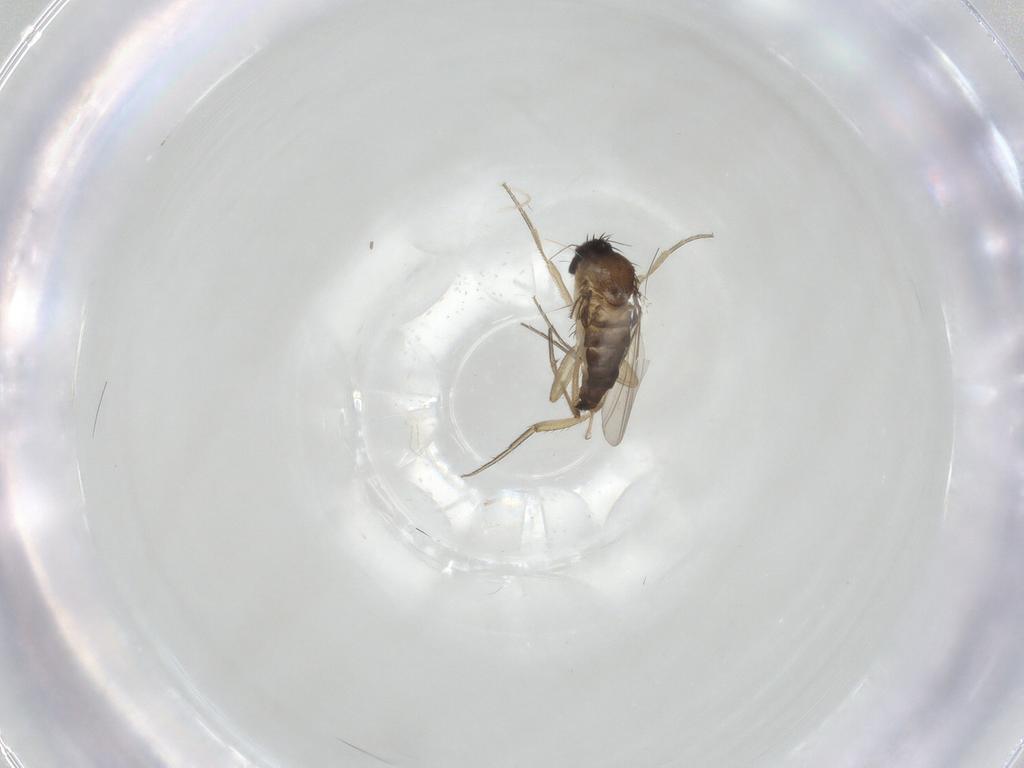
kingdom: Animalia
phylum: Arthropoda
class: Insecta
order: Diptera
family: Phoridae
